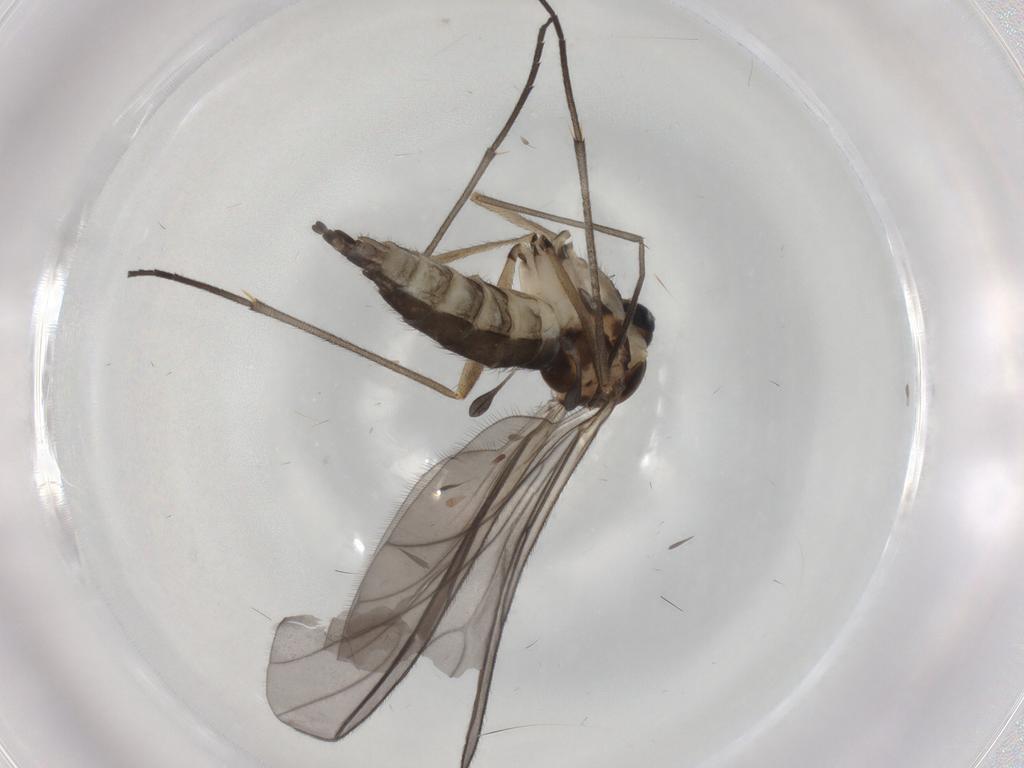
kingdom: Animalia
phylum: Arthropoda
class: Insecta
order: Diptera
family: Sciaridae
